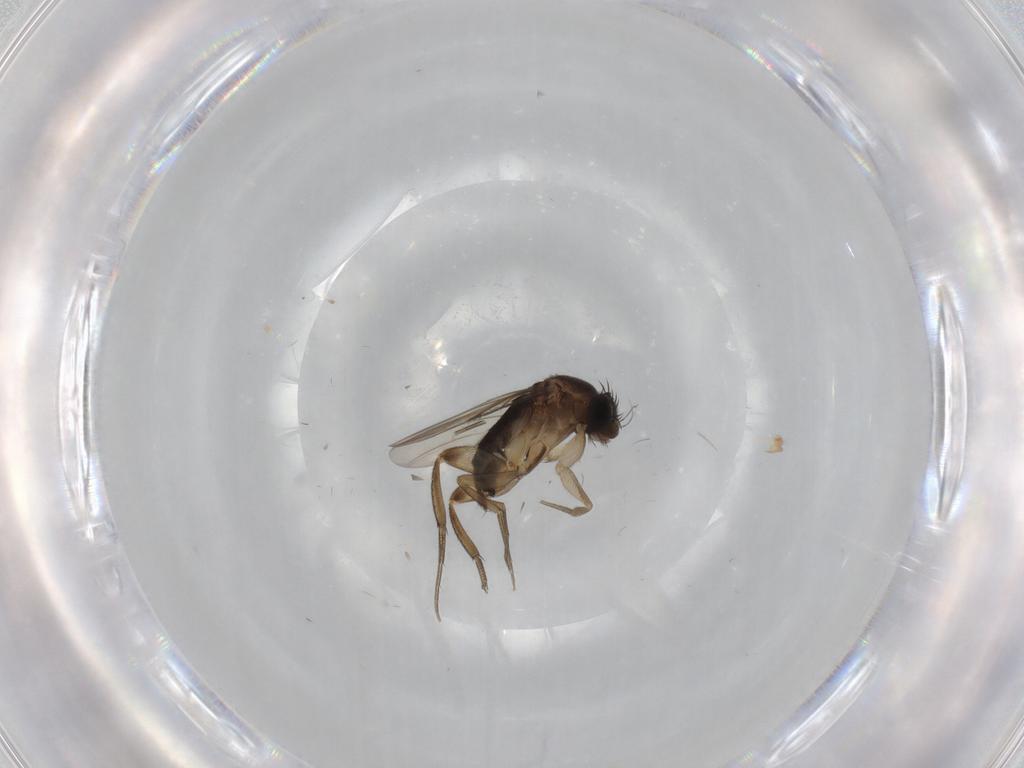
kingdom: Animalia
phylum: Arthropoda
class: Insecta
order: Diptera
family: Phoridae
